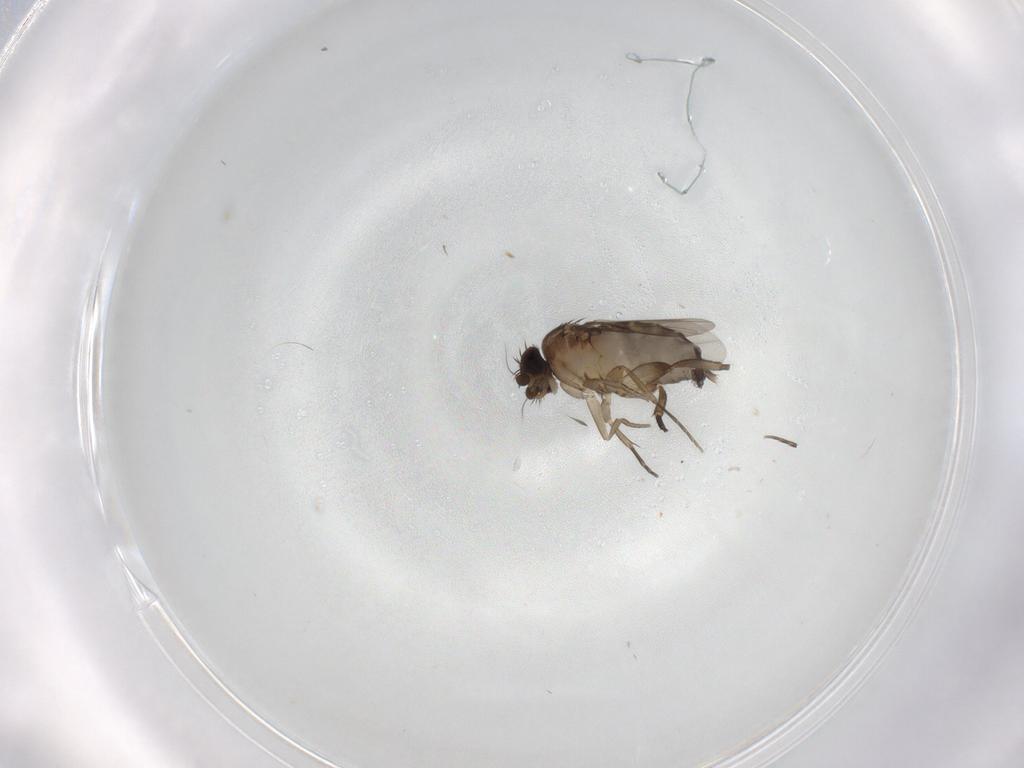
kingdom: Animalia
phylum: Arthropoda
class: Insecta
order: Diptera
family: Phoridae
